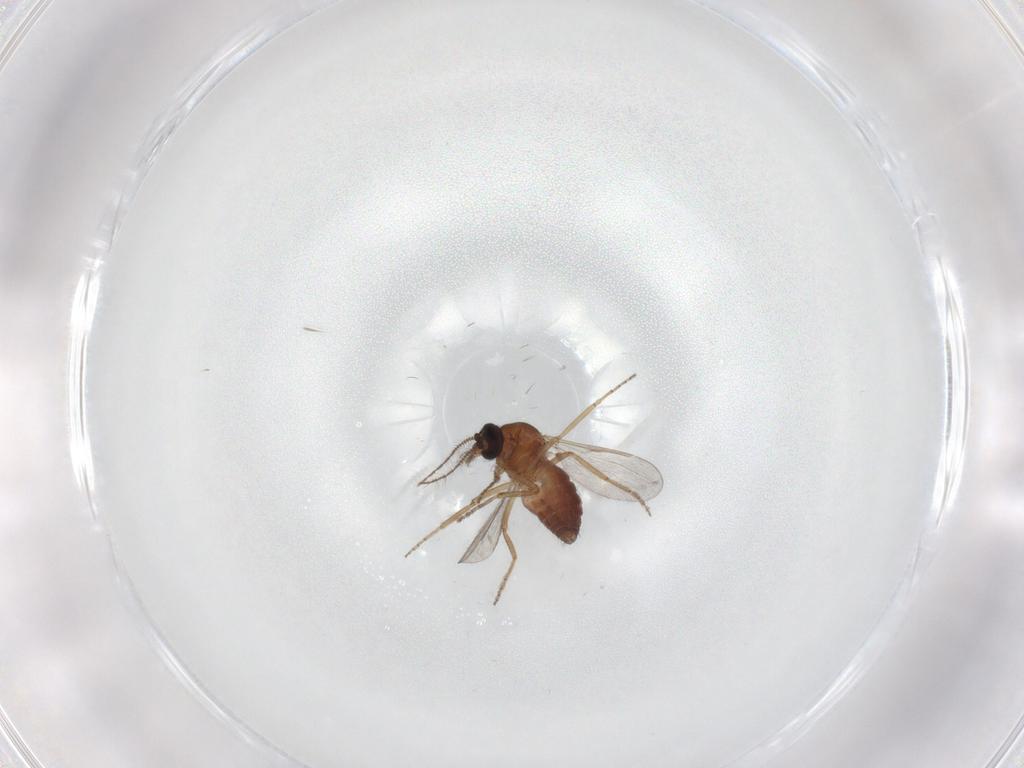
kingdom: Animalia
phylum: Arthropoda
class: Insecta
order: Diptera
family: Ceratopogonidae
